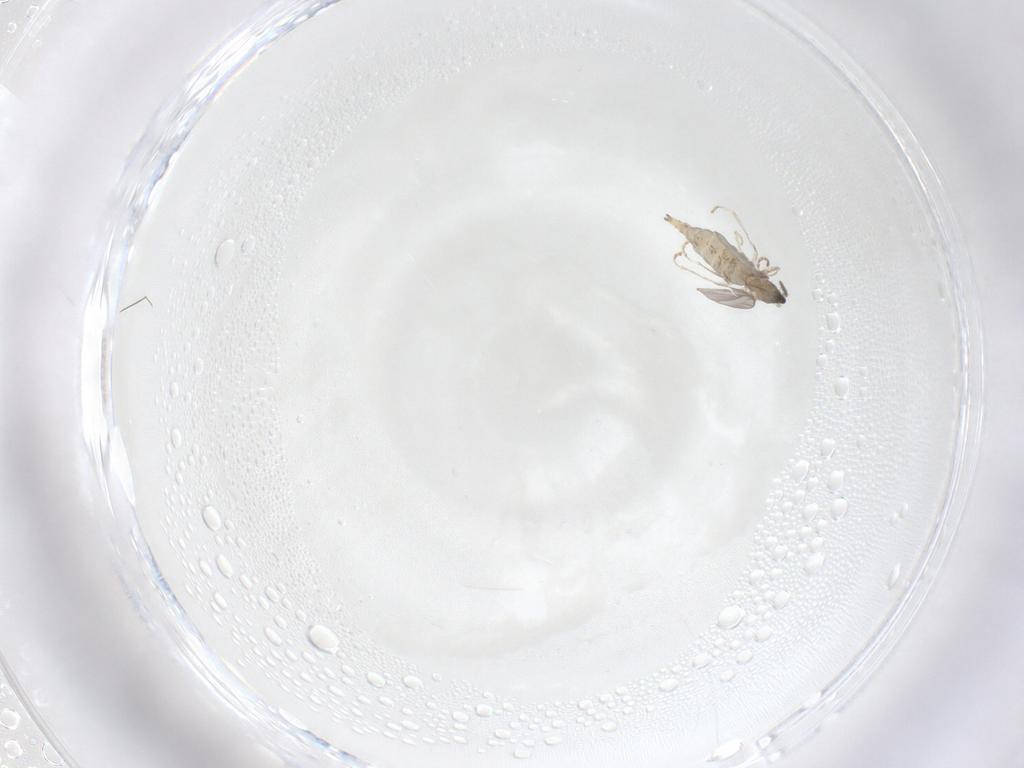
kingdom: Animalia
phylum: Arthropoda
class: Insecta
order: Diptera
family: Cecidomyiidae
